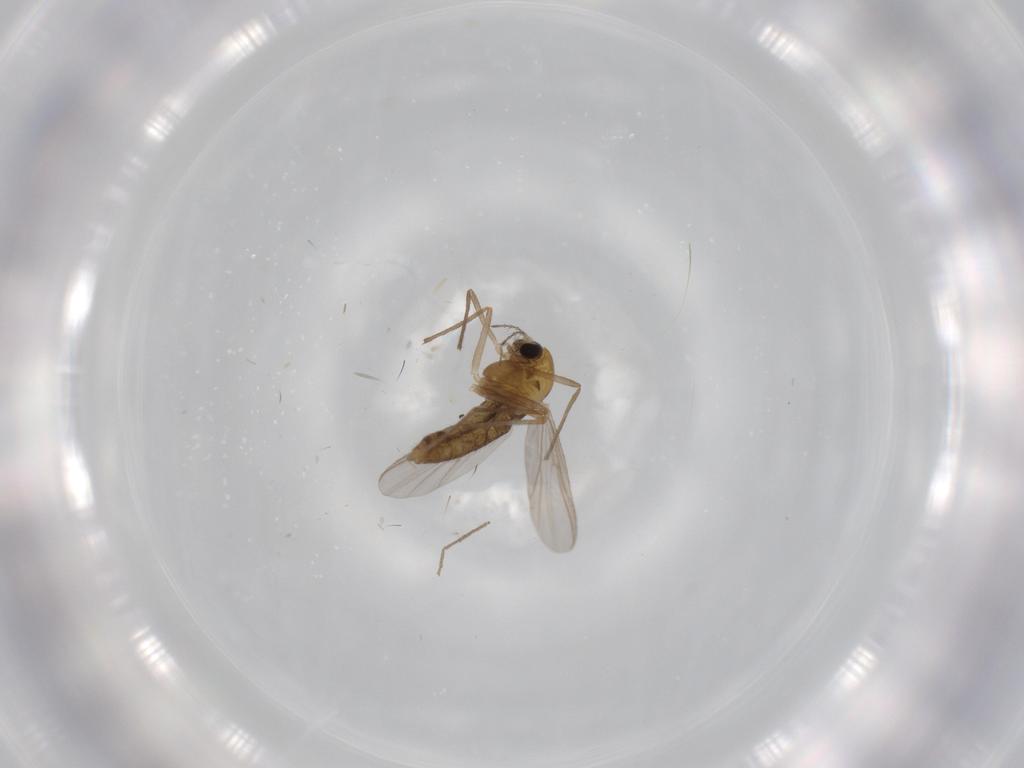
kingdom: Animalia
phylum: Arthropoda
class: Insecta
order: Diptera
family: Chironomidae
